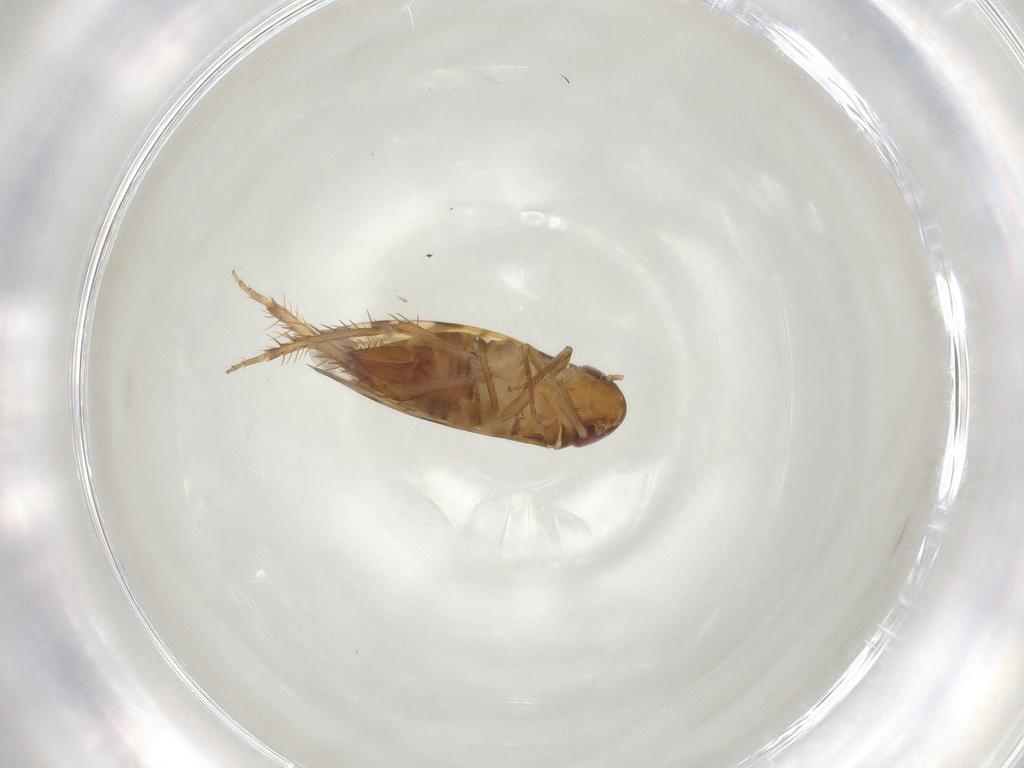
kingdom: Animalia
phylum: Arthropoda
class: Insecta
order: Hemiptera
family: Cicadellidae
